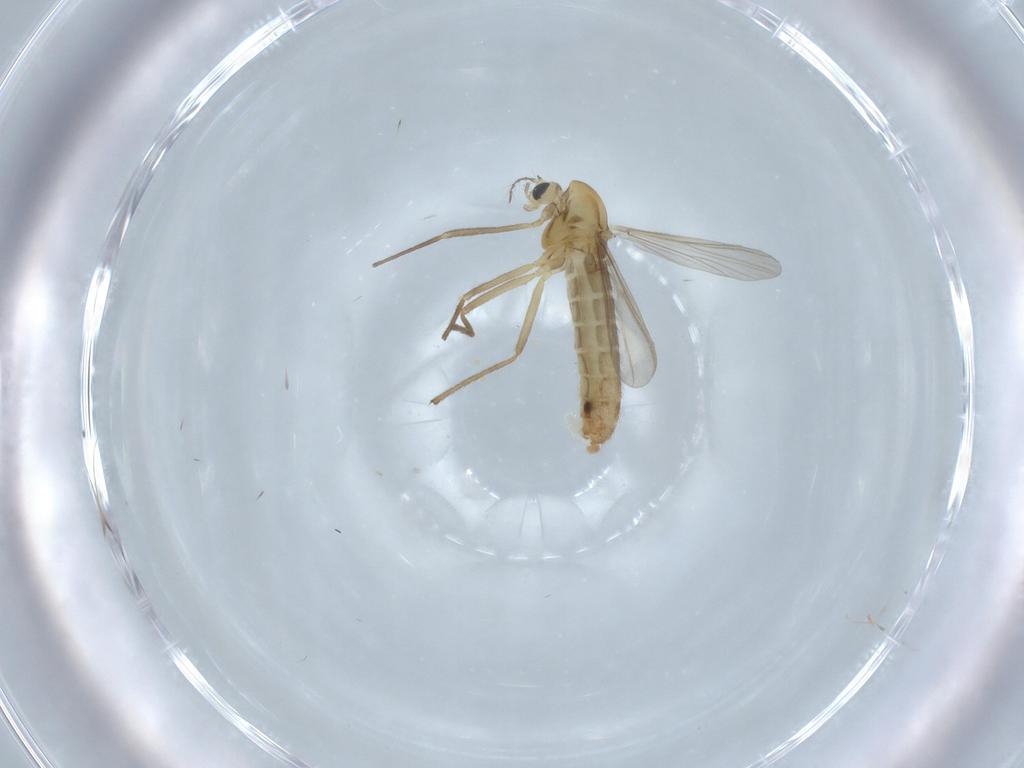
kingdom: Animalia
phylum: Arthropoda
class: Insecta
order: Diptera
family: Chironomidae
